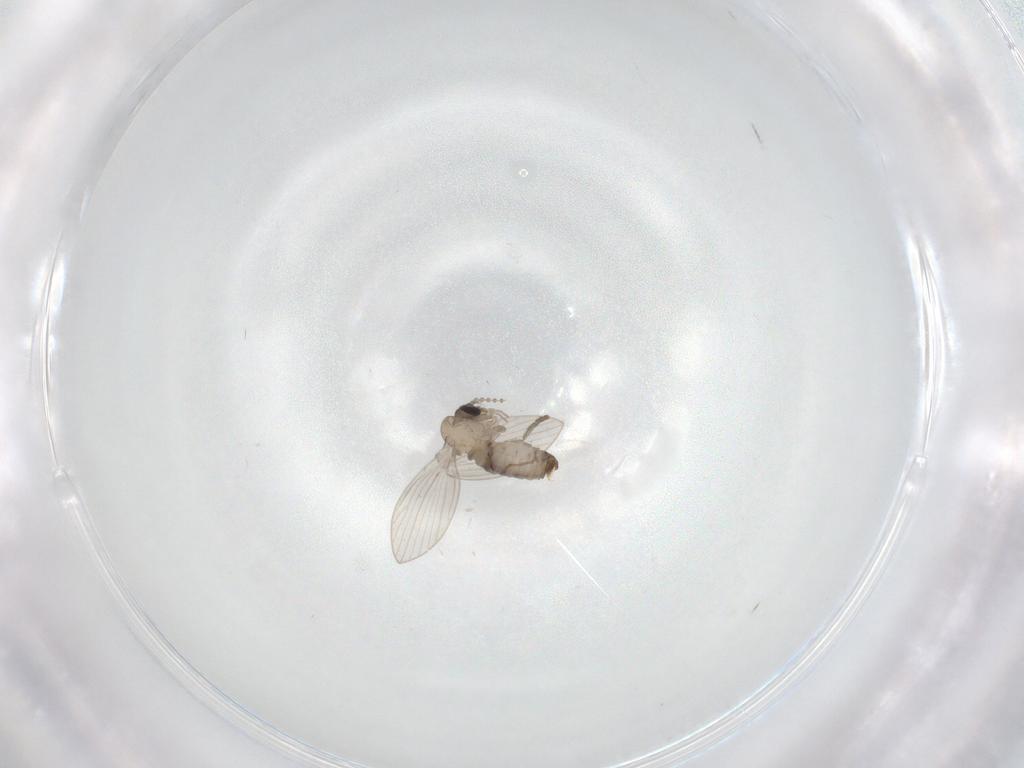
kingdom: Animalia
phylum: Arthropoda
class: Insecta
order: Diptera
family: Psychodidae
